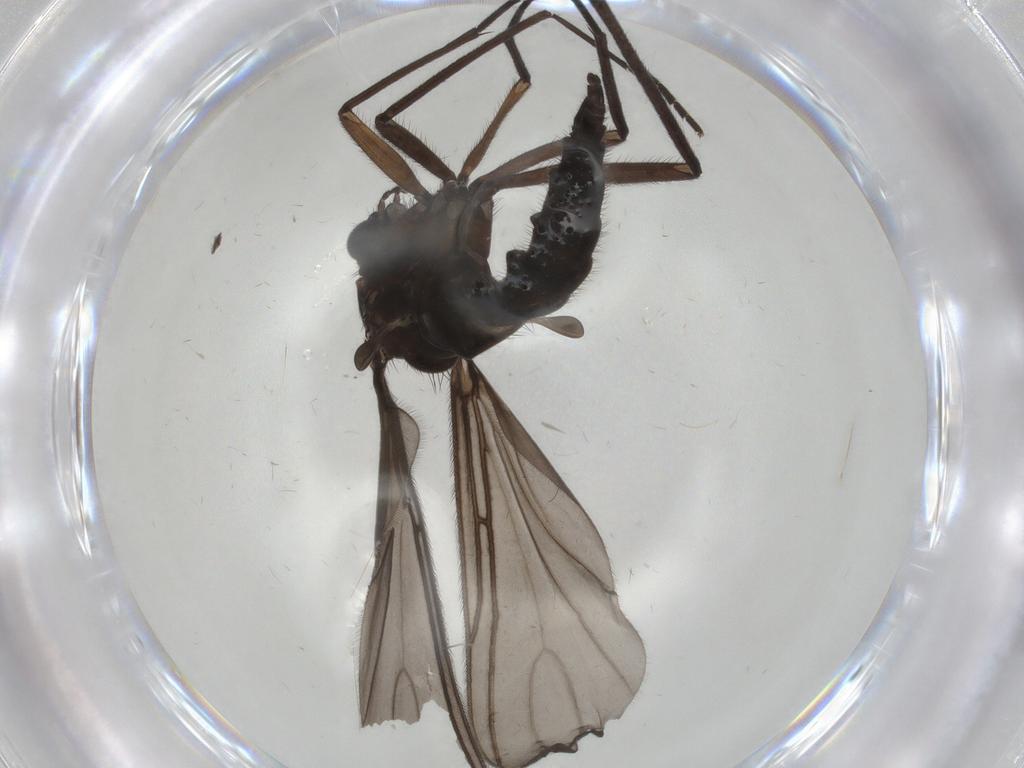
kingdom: Animalia
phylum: Arthropoda
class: Insecta
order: Diptera
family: Sciaridae
